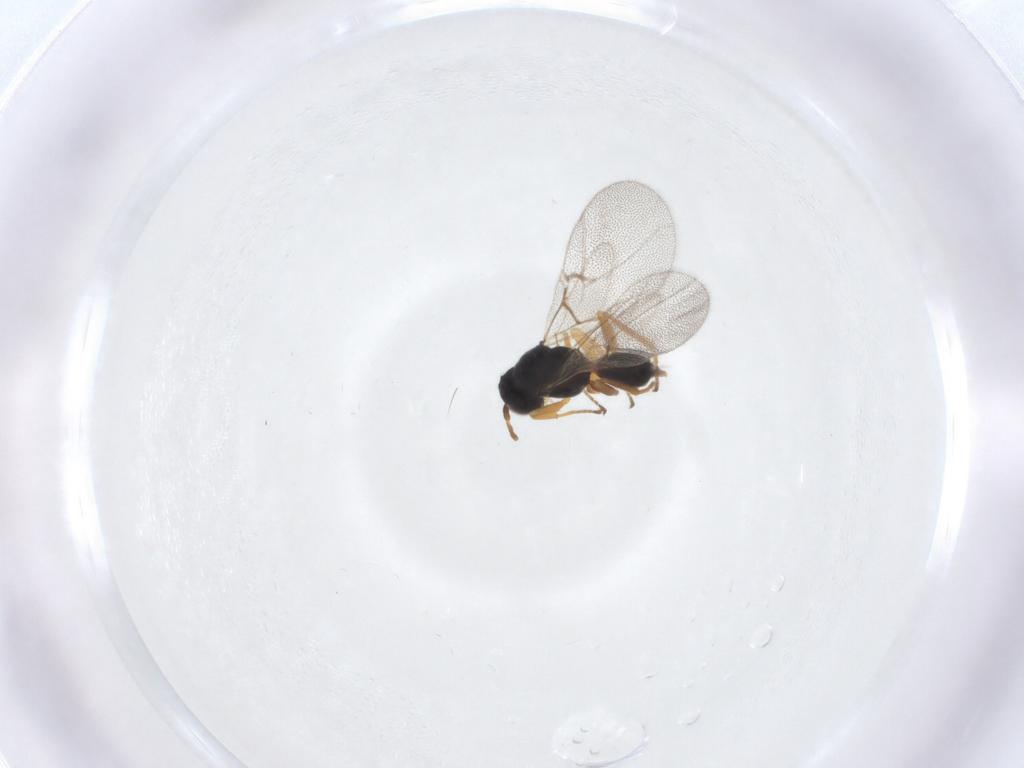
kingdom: Animalia
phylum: Arthropoda
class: Insecta
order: Hymenoptera
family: Cynipidae
